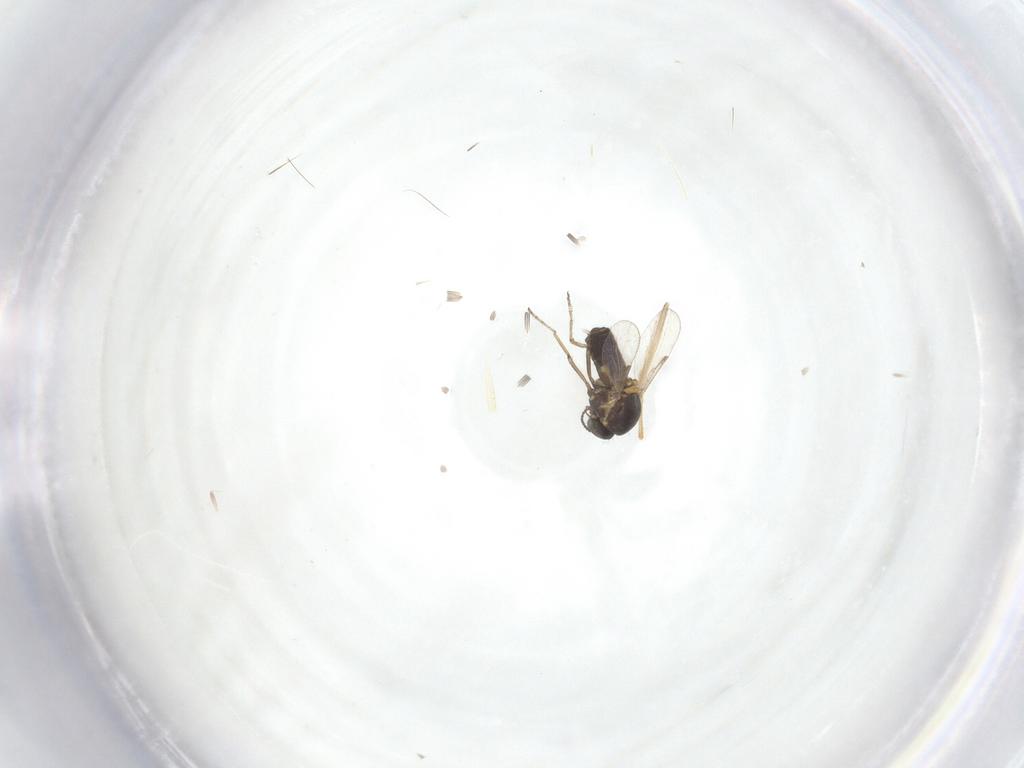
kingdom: Animalia
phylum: Arthropoda
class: Insecta
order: Diptera
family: Chironomidae
